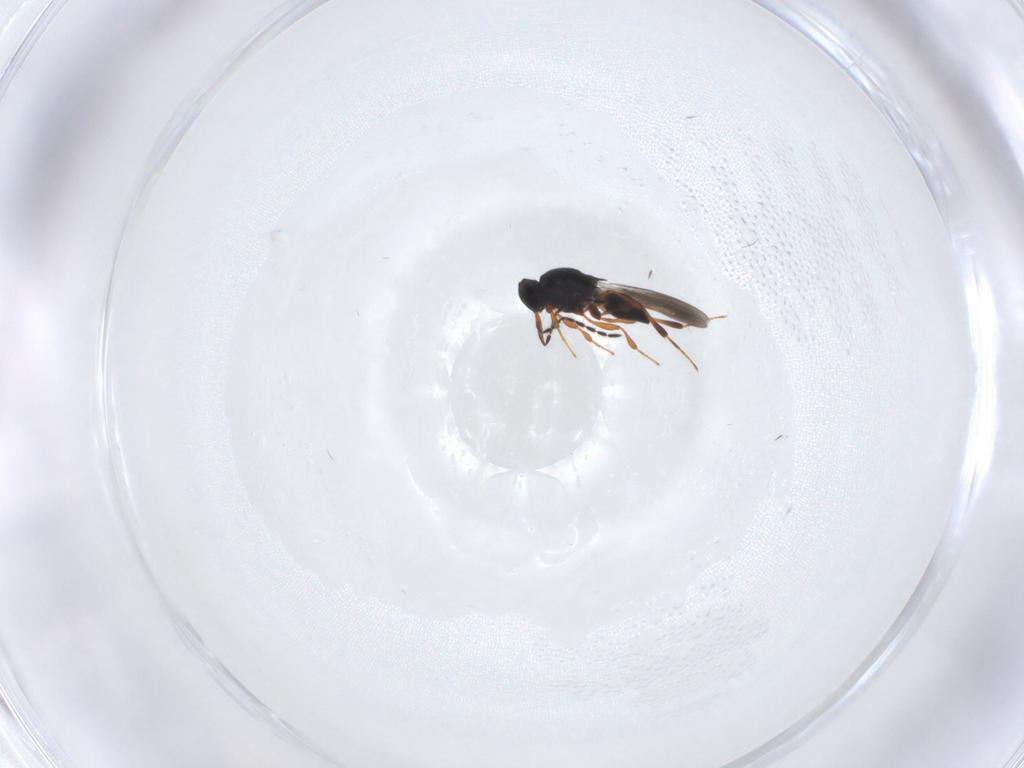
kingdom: Animalia
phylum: Arthropoda
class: Insecta
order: Hymenoptera
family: Platygastridae
